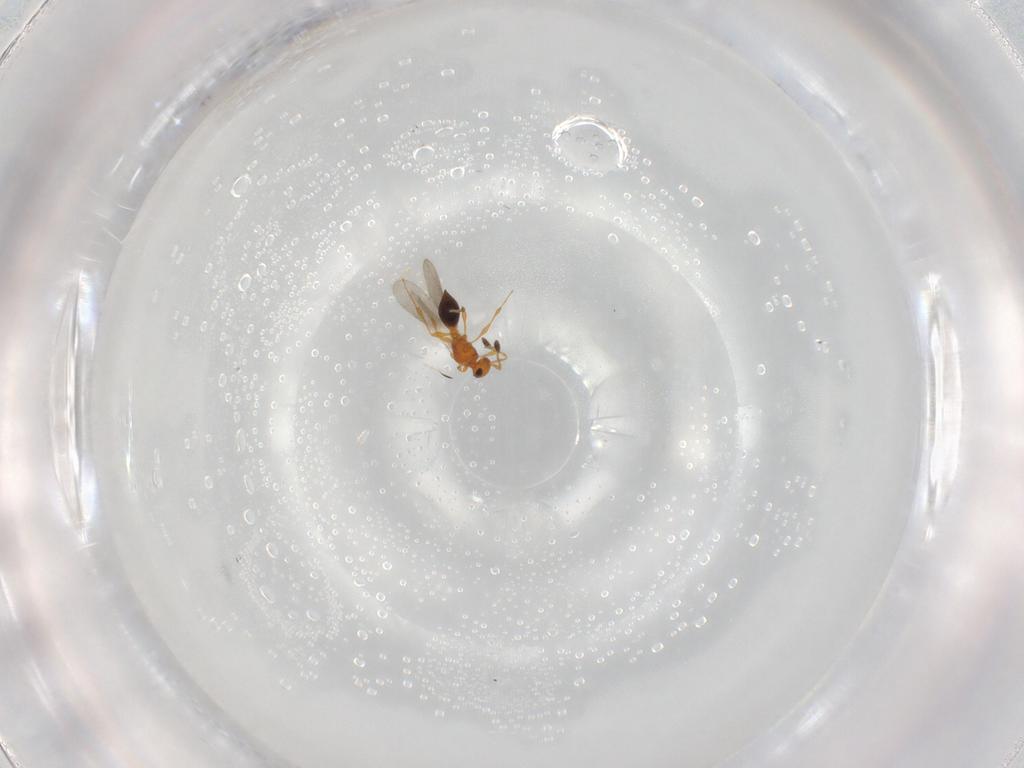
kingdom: Animalia
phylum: Arthropoda
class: Insecta
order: Hymenoptera
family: Platygastridae
